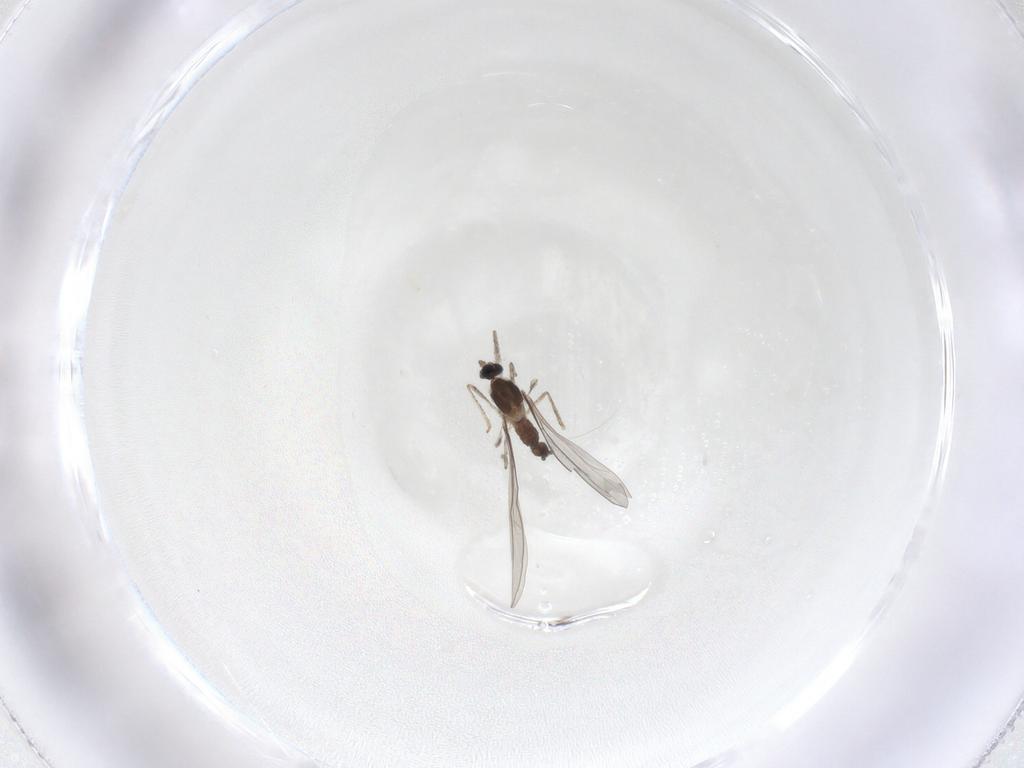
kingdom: Animalia
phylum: Arthropoda
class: Insecta
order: Diptera
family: Cecidomyiidae
